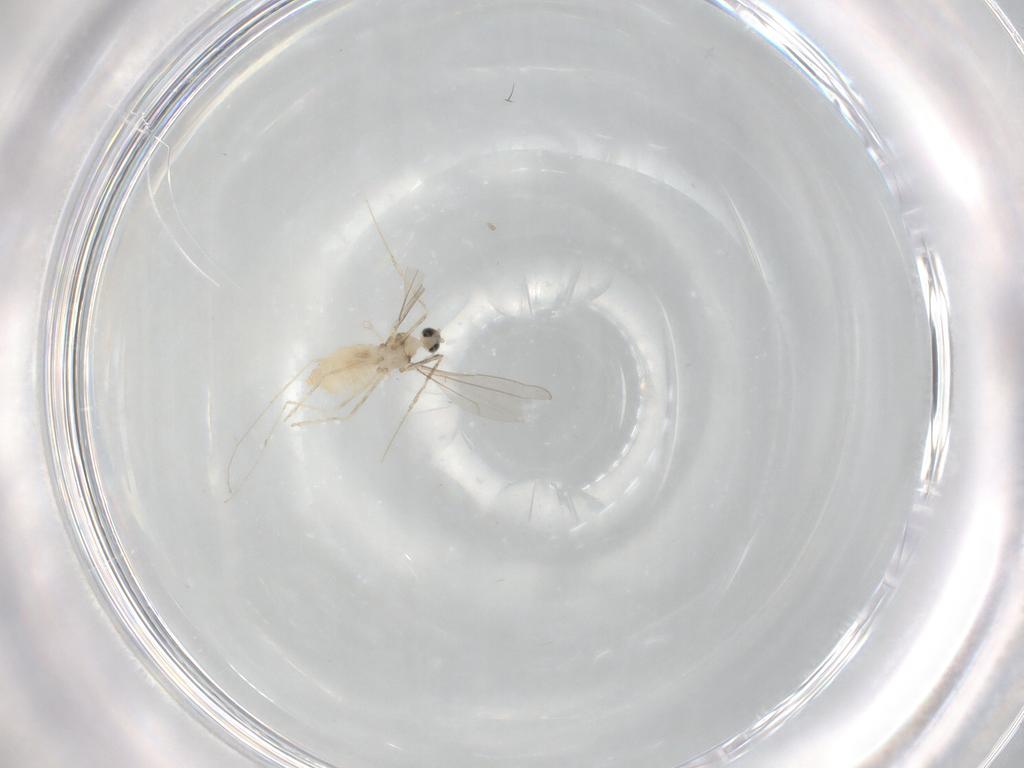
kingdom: Animalia
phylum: Arthropoda
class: Insecta
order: Diptera
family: Cecidomyiidae
